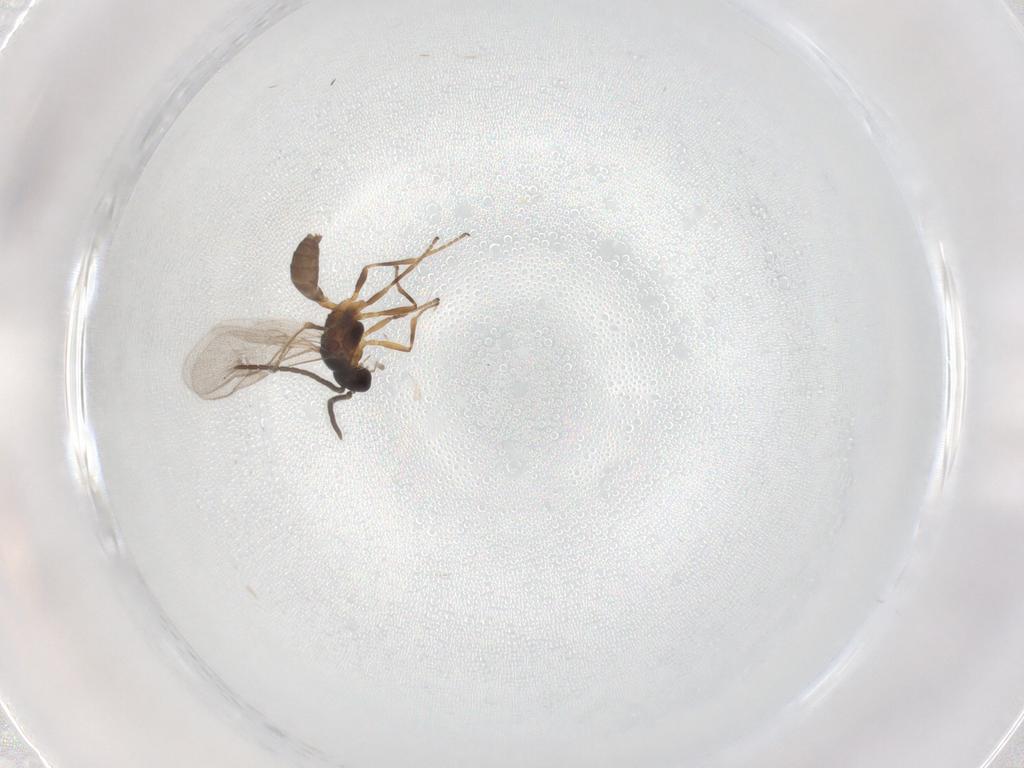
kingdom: Animalia
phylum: Arthropoda
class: Insecta
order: Hymenoptera
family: Braconidae
